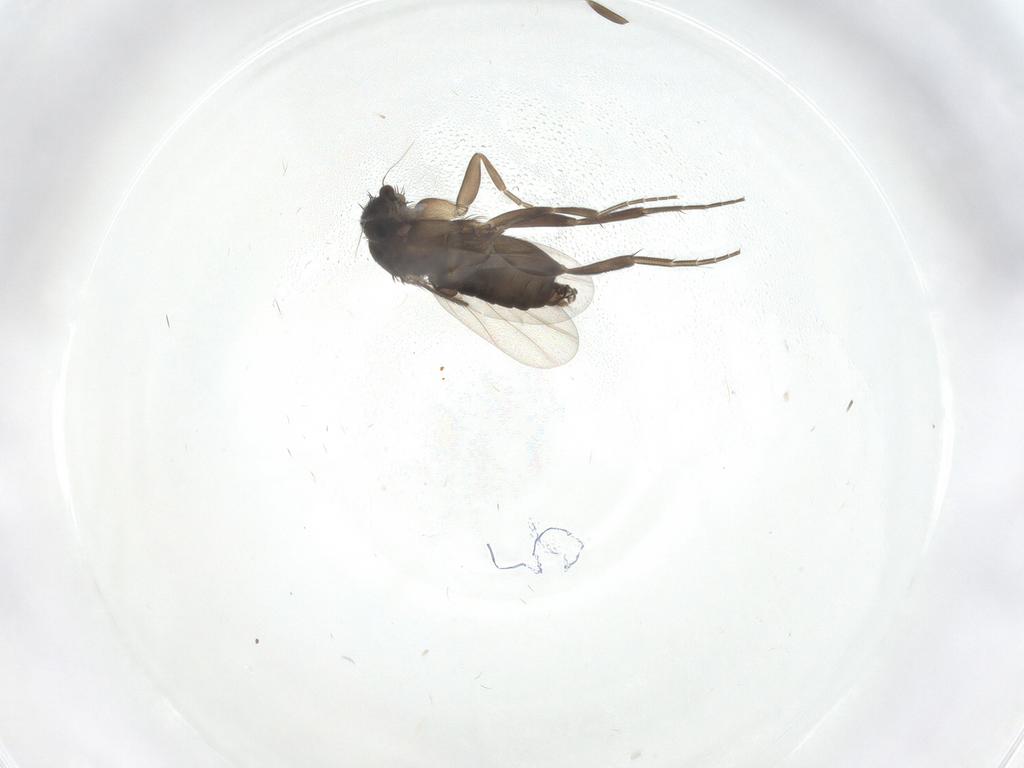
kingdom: Animalia
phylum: Arthropoda
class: Insecta
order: Diptera
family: Phoridae
